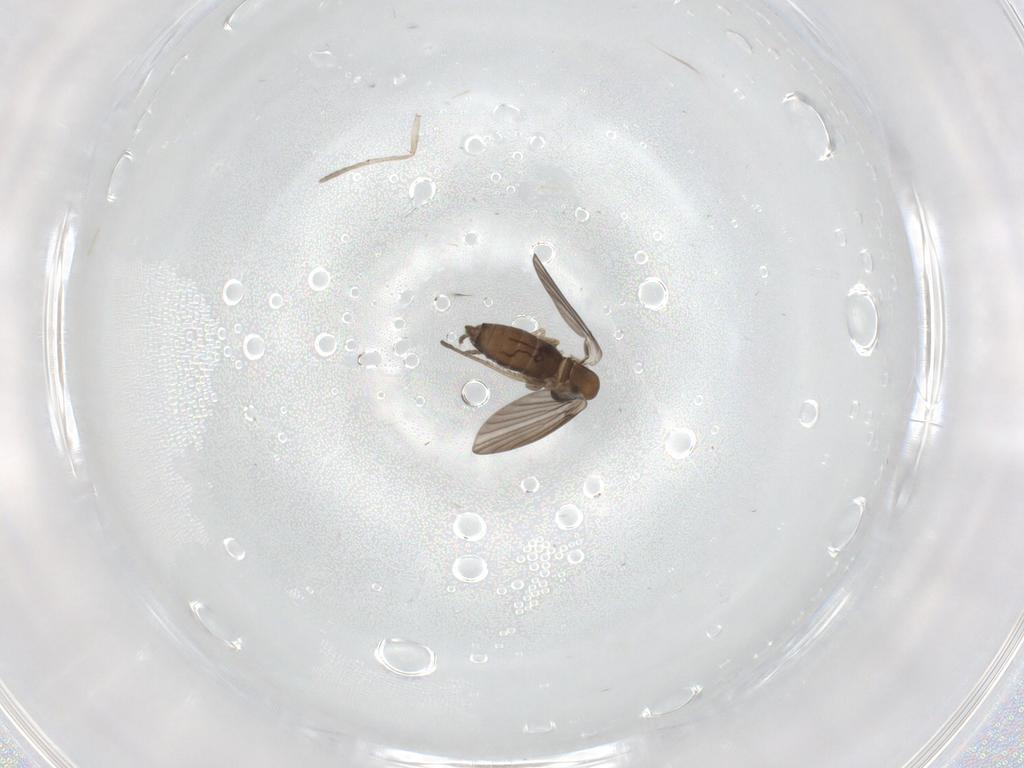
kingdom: Animalia
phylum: Arthropoda
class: Insecta
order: Diptera
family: Psychodidae
